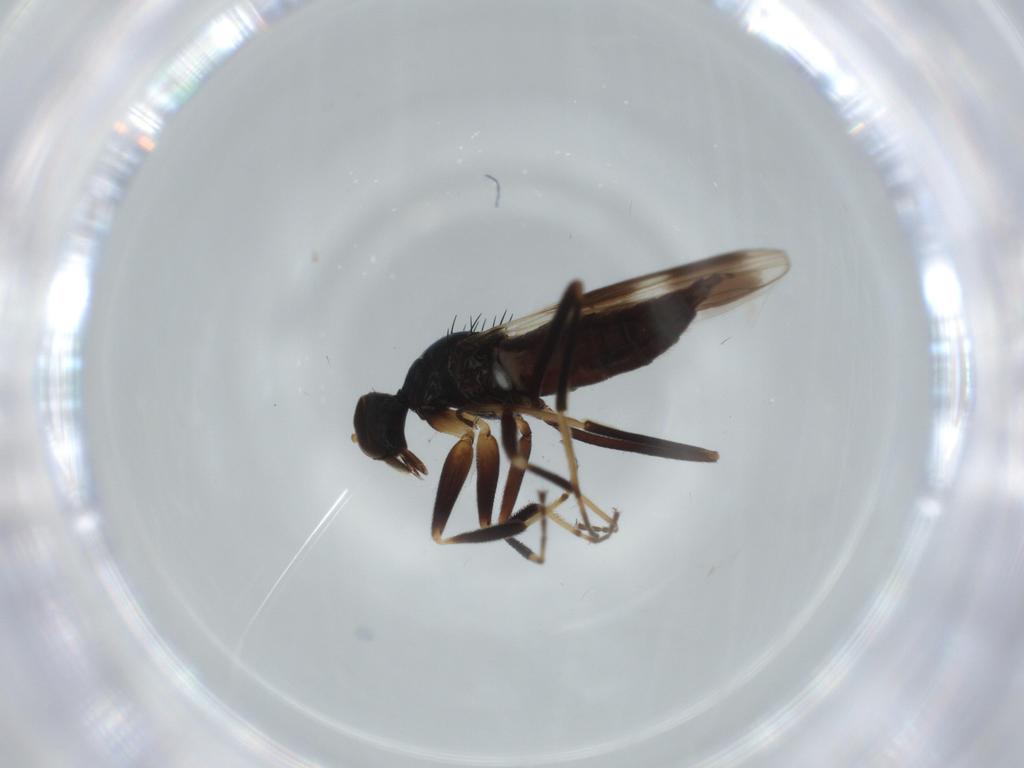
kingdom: Animalia
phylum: Arthropoda
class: Insecta
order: Diptera
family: Hybotidae
